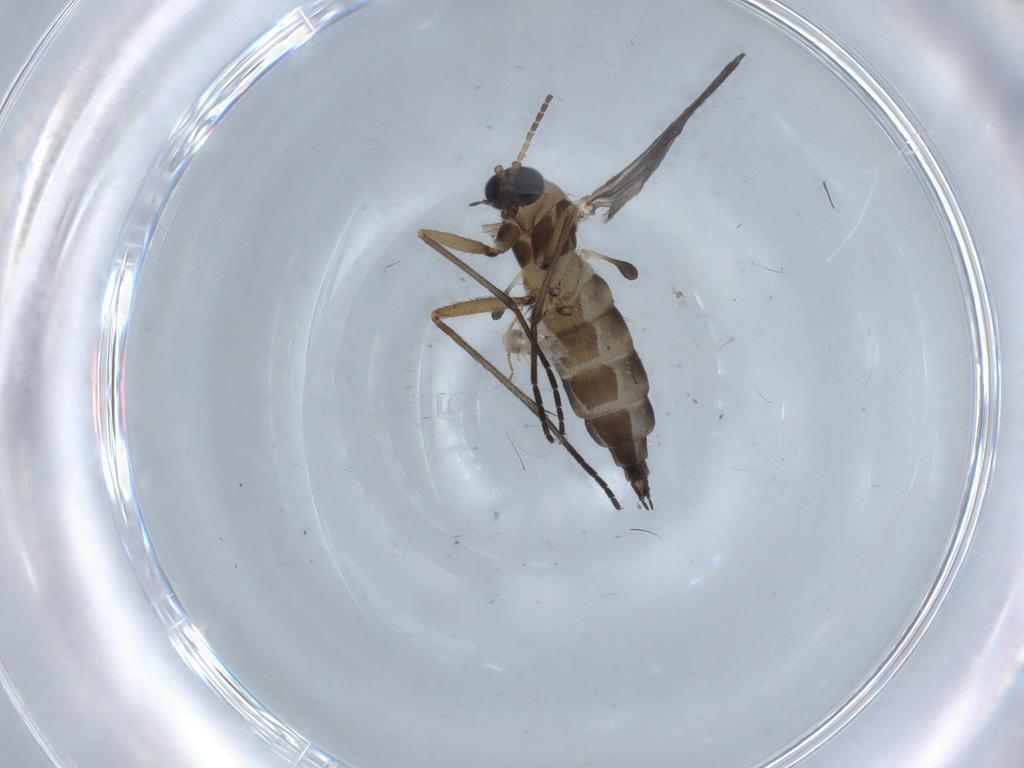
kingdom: Animalia
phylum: Arthropoda
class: Insecta
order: Diptera
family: Sciaridae
